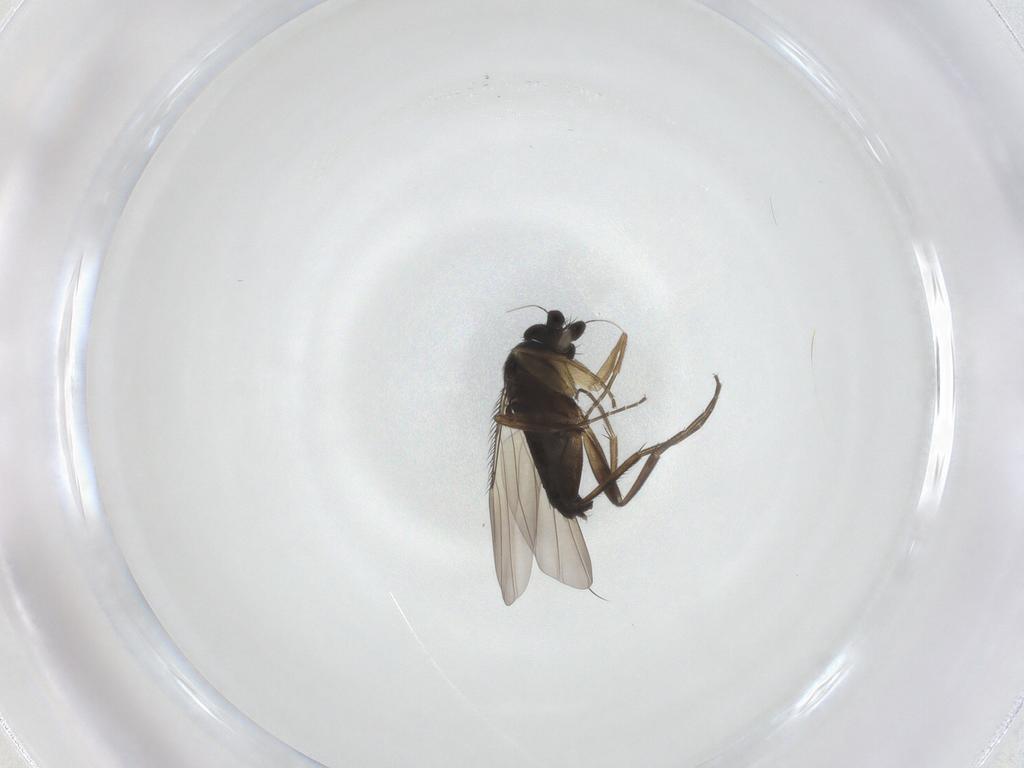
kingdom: Animalia
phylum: Arthropoda
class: Insecta
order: Diptera
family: Phoridae
